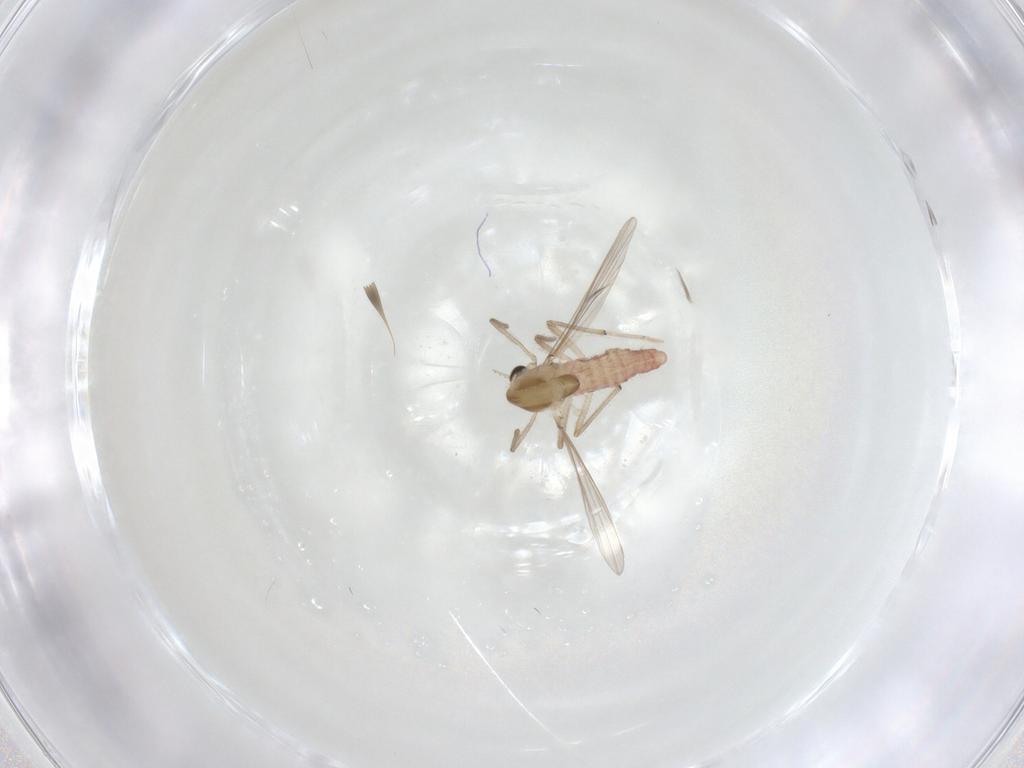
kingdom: Animalia
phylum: Arthropoda
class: Insecta
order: Diptera
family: Chironomidae
